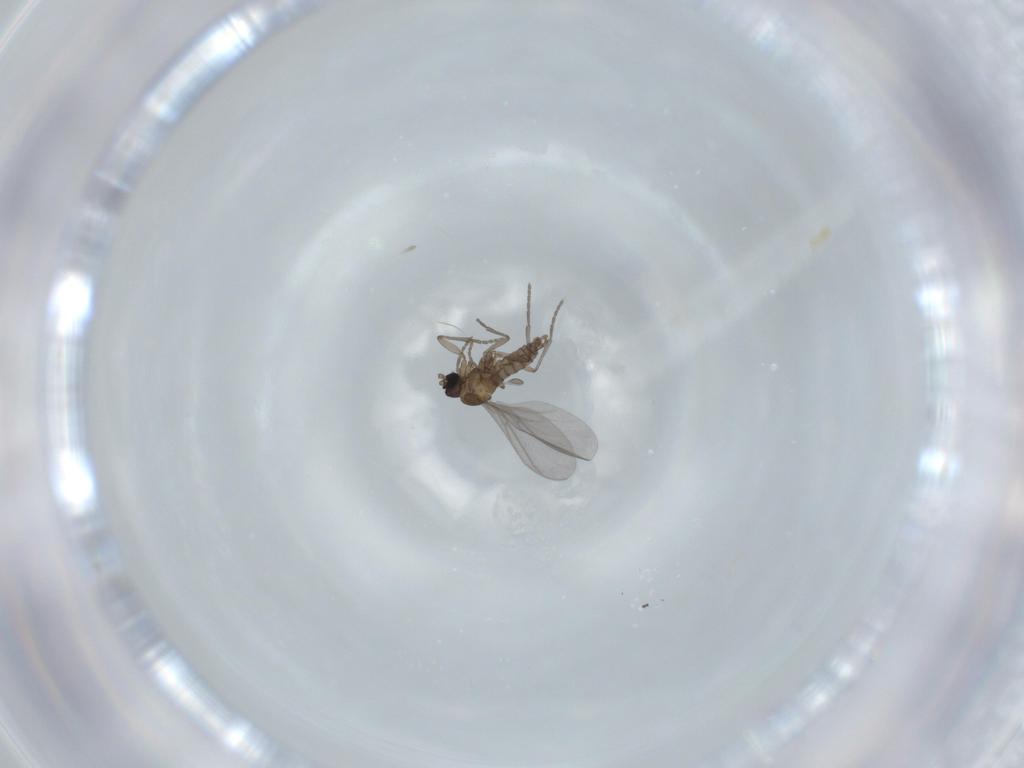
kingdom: Animalia
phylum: Arthropoda
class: Insecta
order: Diptera
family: Sciaridae
